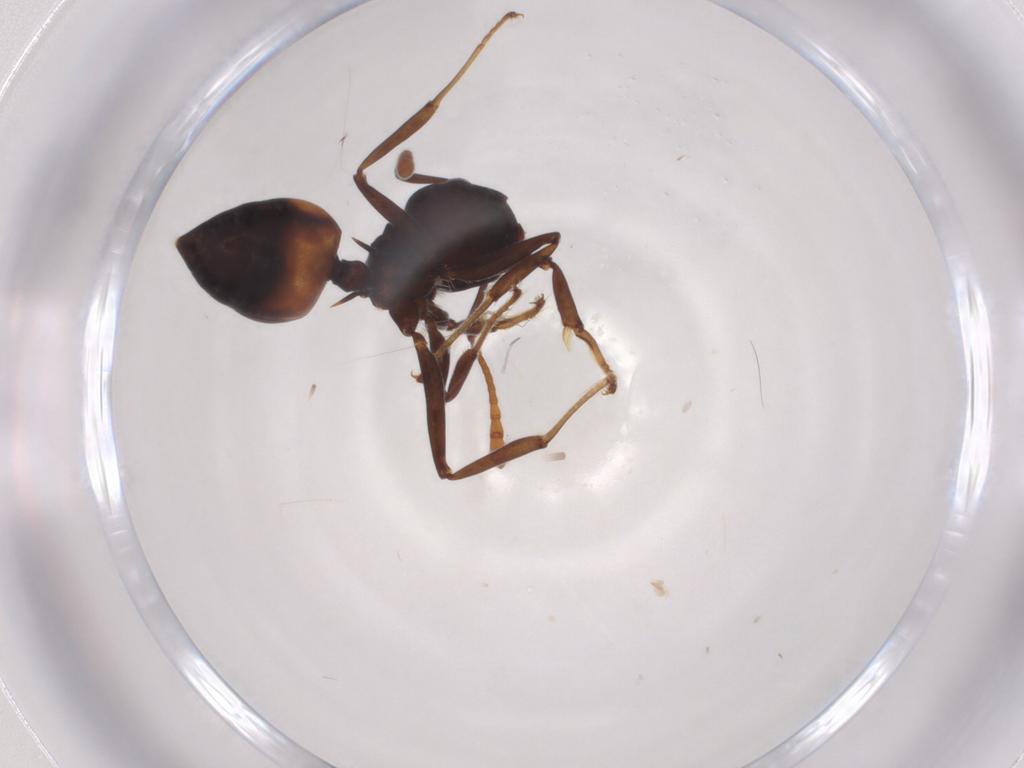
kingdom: Animalia
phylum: Arthropoda
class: Insecta
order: Hymenoptera
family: Formicidae
